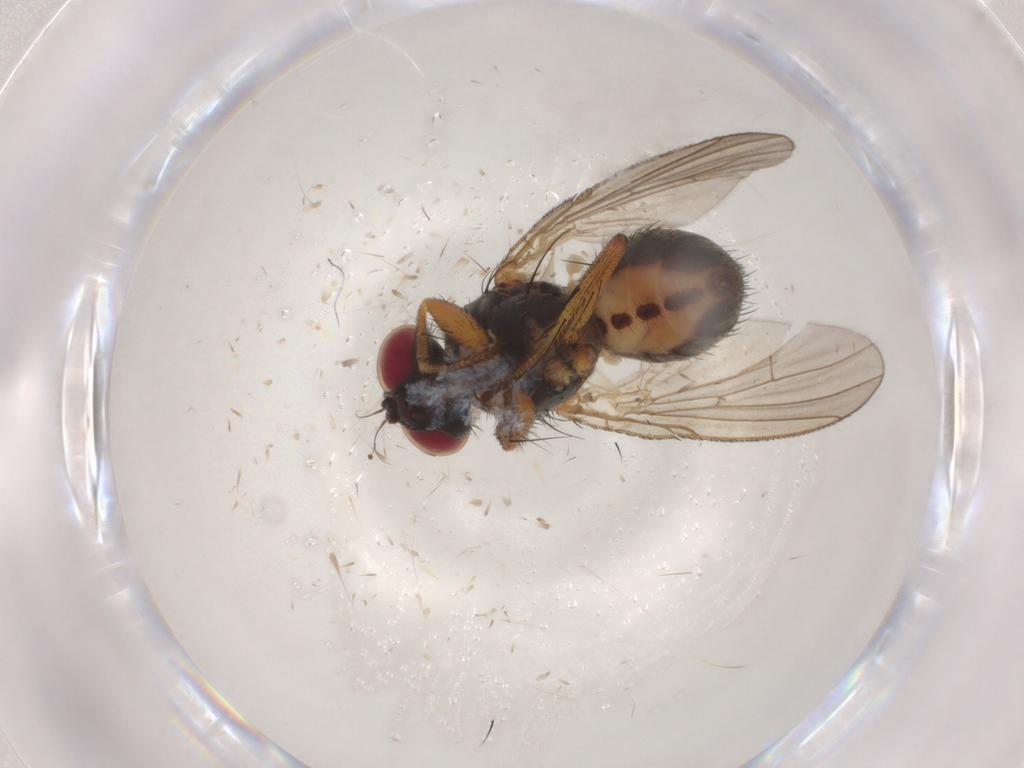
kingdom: Animalia
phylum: Arthropoda
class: Insecta
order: Diptera
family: Muscidae
